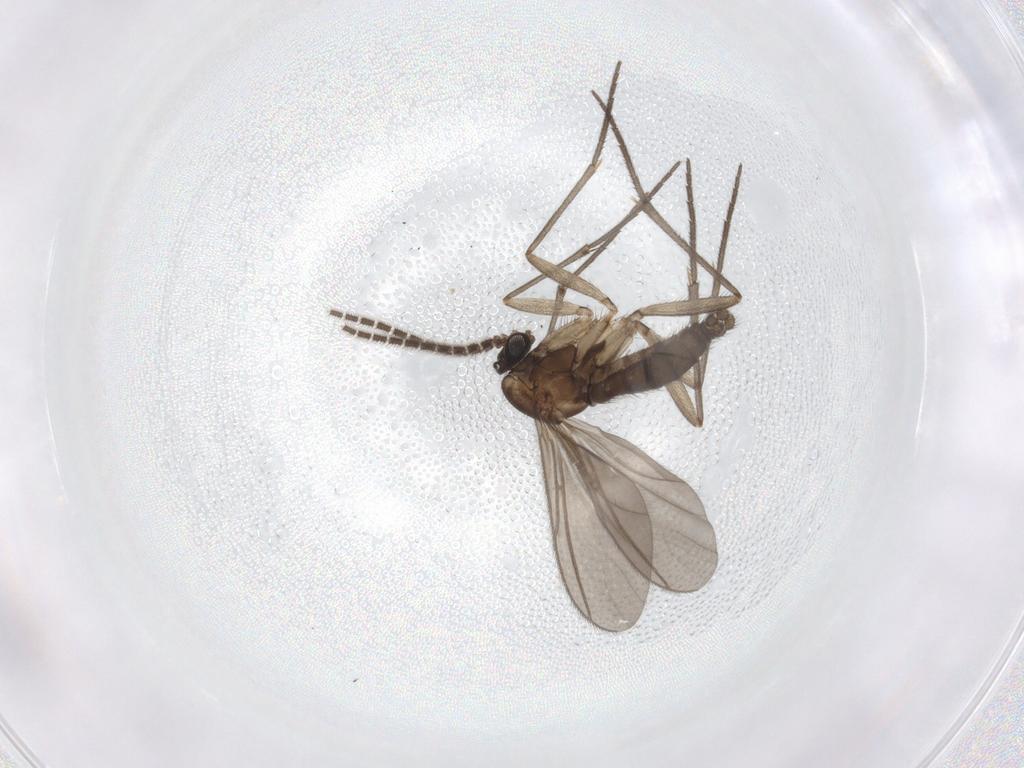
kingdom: Animalia
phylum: Arthropoda
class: Insecta
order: Diptera
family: Sciaridae
